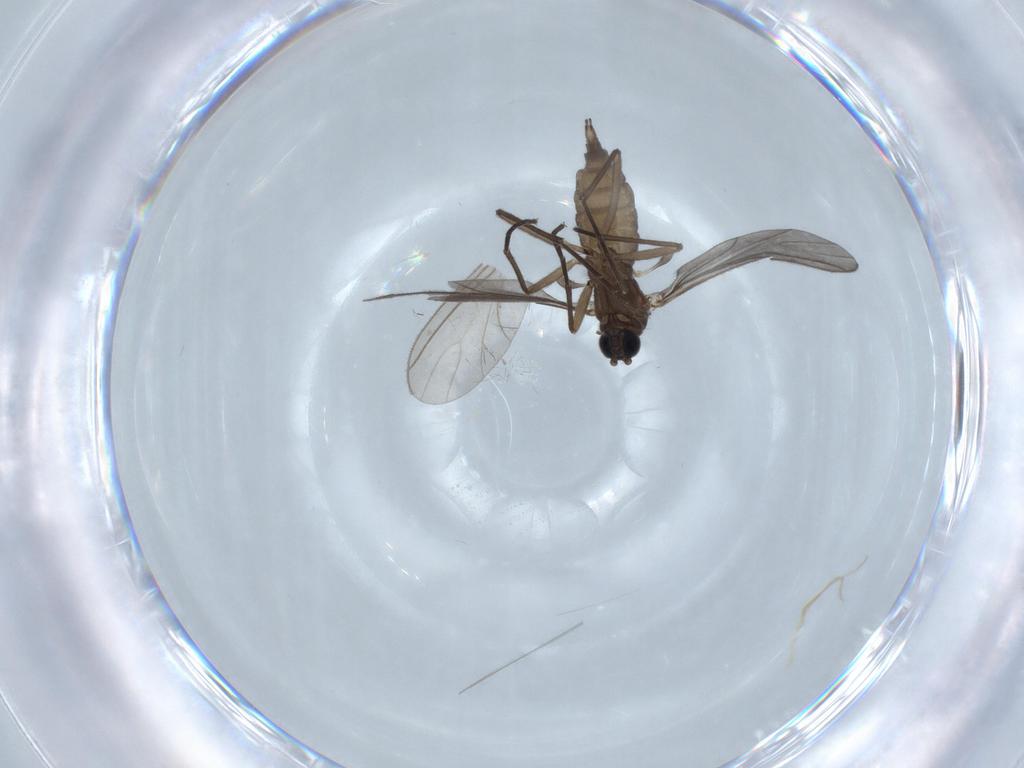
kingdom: Animalia
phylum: Arthropoda
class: Insecta
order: Diptera
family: Sciaridae
